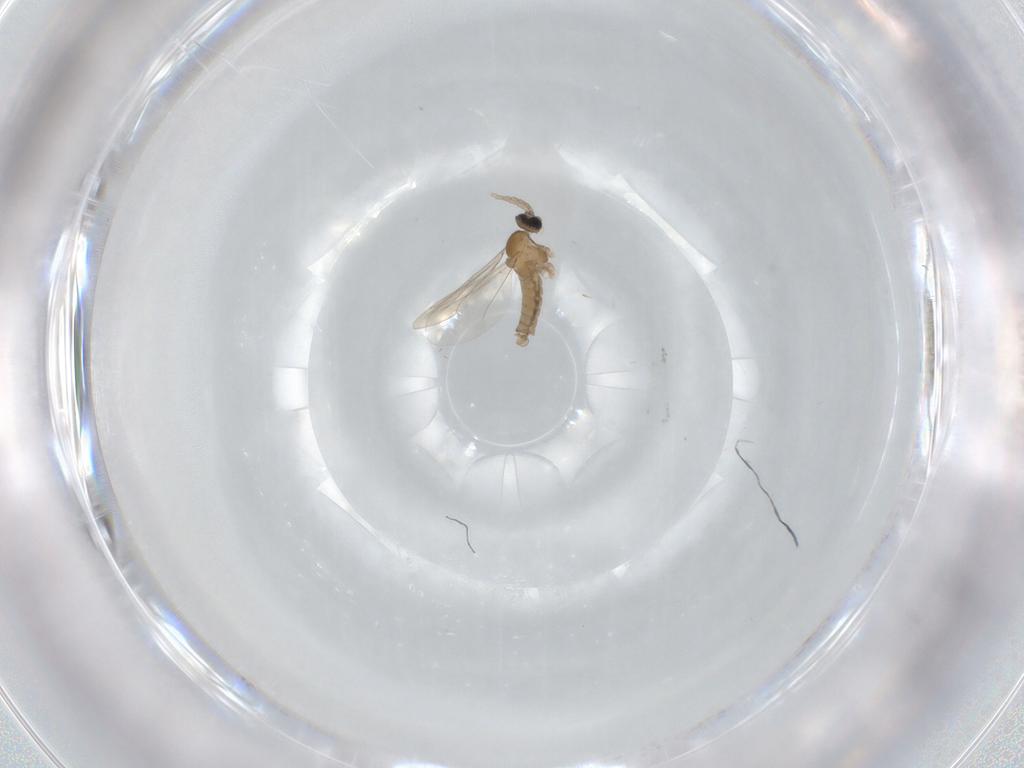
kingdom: Animalia
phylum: Arthropoda
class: Insecta
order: Diptera
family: Cecidomyiidae
